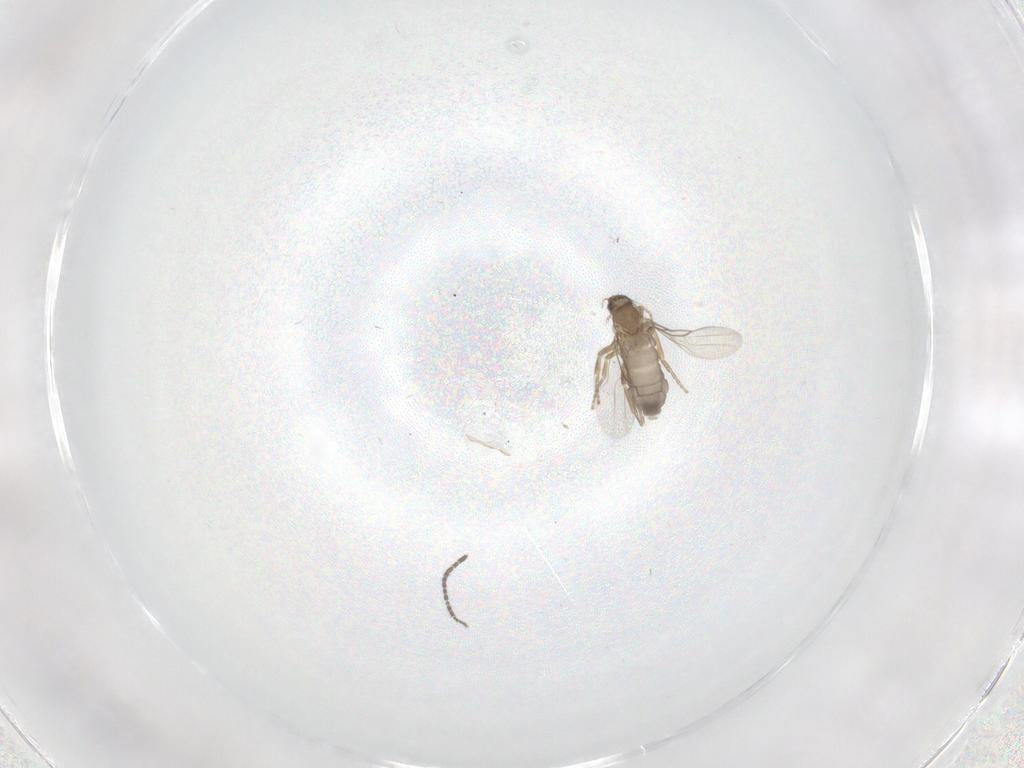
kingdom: Animalia
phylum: Arthropoda
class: Insecta
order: Diptera
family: Sciaridae
